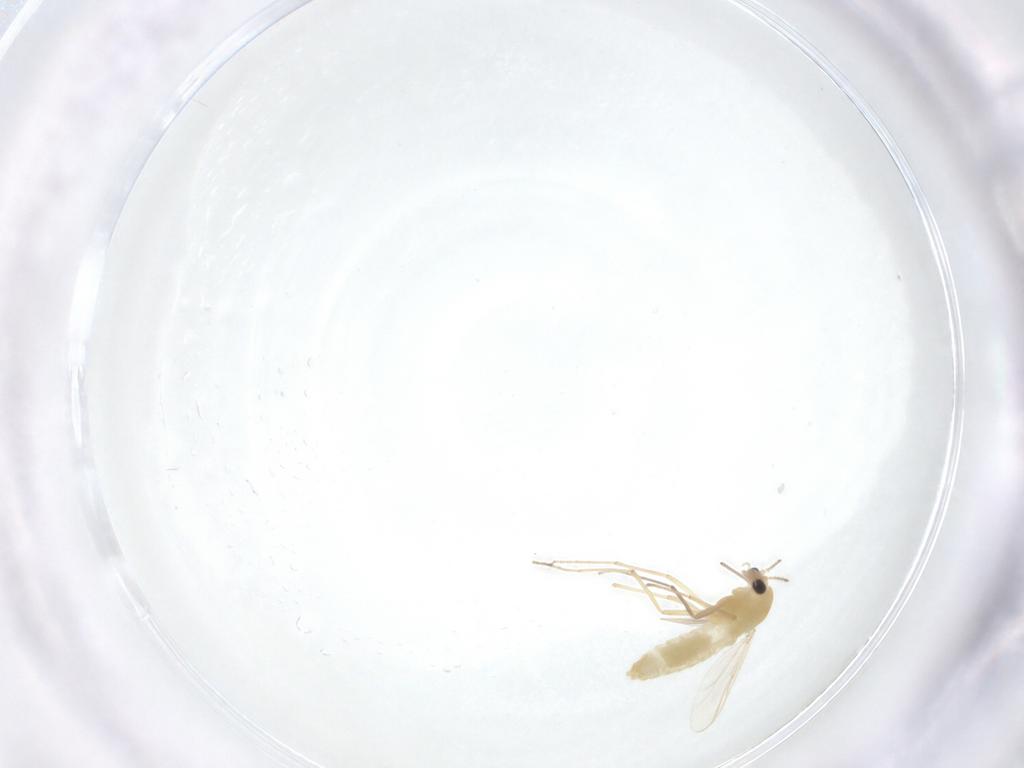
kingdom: Animalia
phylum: Arthropoda
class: Insecta
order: Diptera
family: Chironomidae
